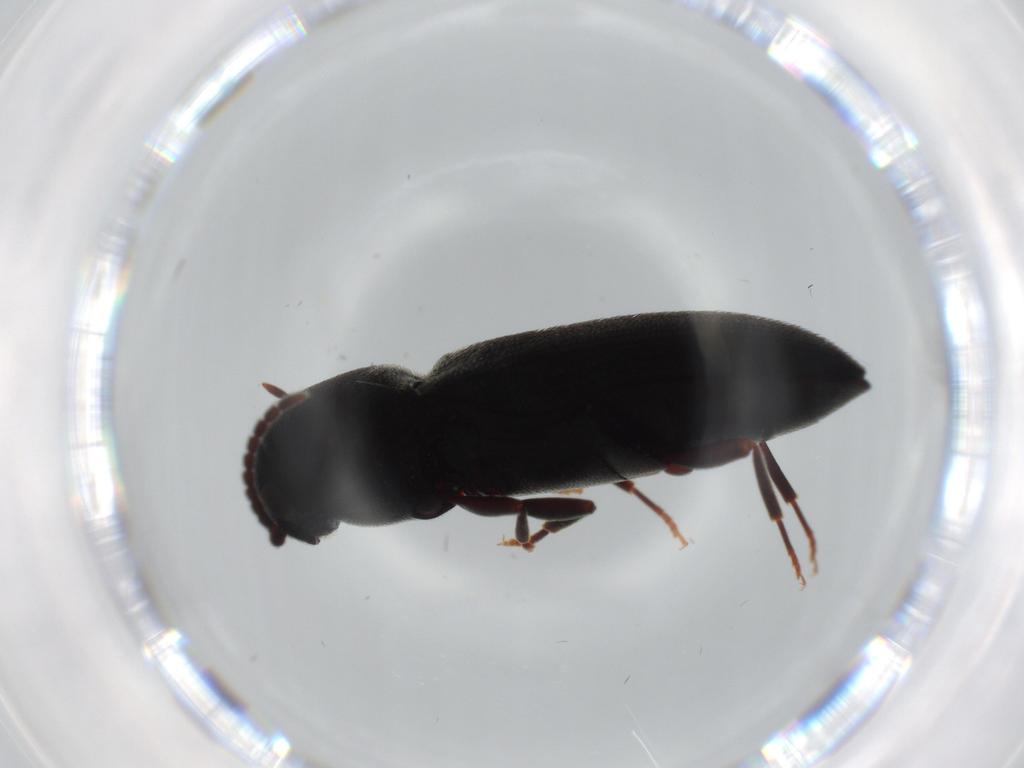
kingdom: Animalia
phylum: Arthropoda
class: Insecta
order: Coleoptera
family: Eucnemidae
